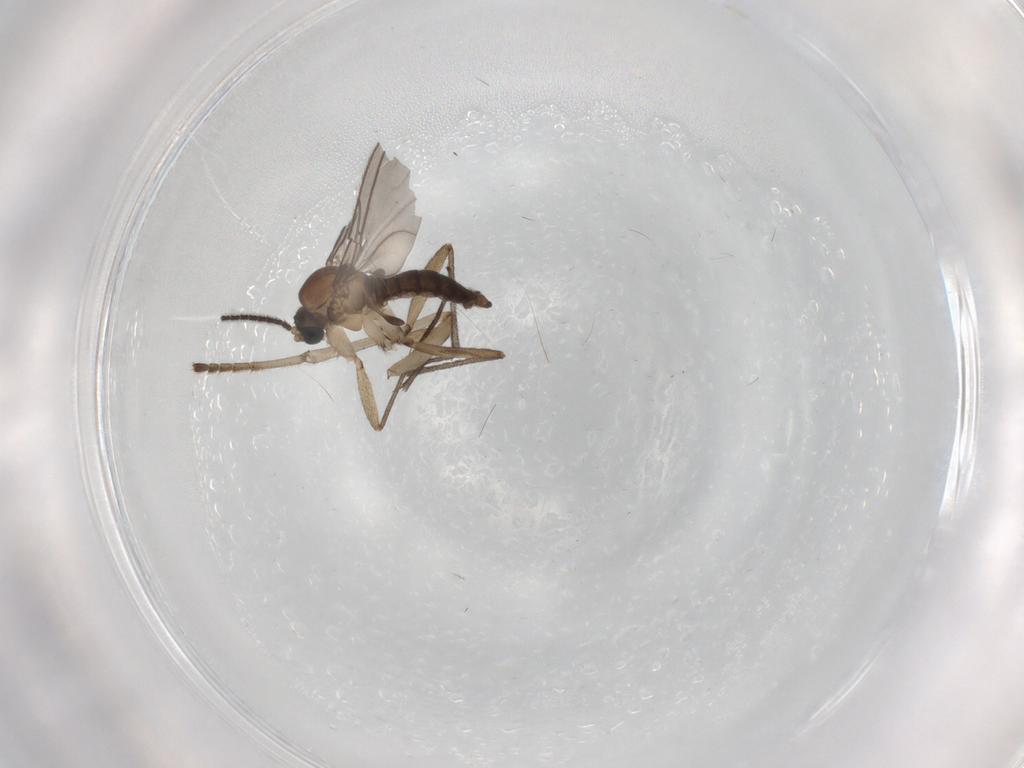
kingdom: Animalia
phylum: Arthropoda
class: Insecta
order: Diptera
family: Psychodidae
